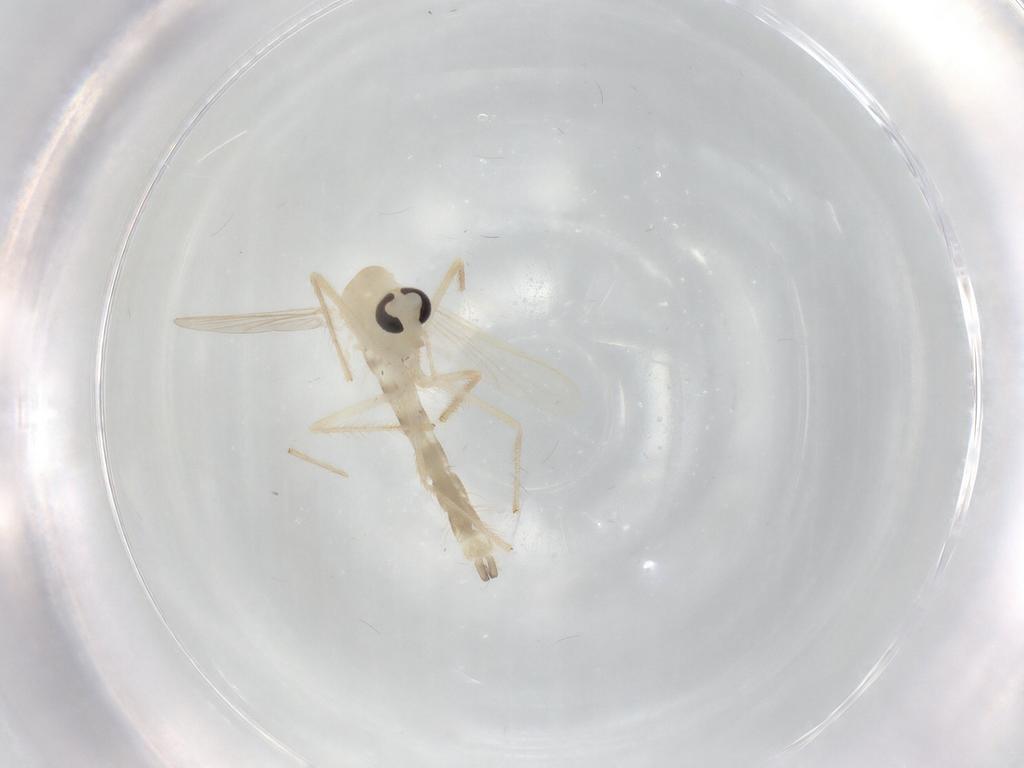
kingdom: Animalia
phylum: Arthropoda
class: Insecta
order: Diptera
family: Chironomidae
